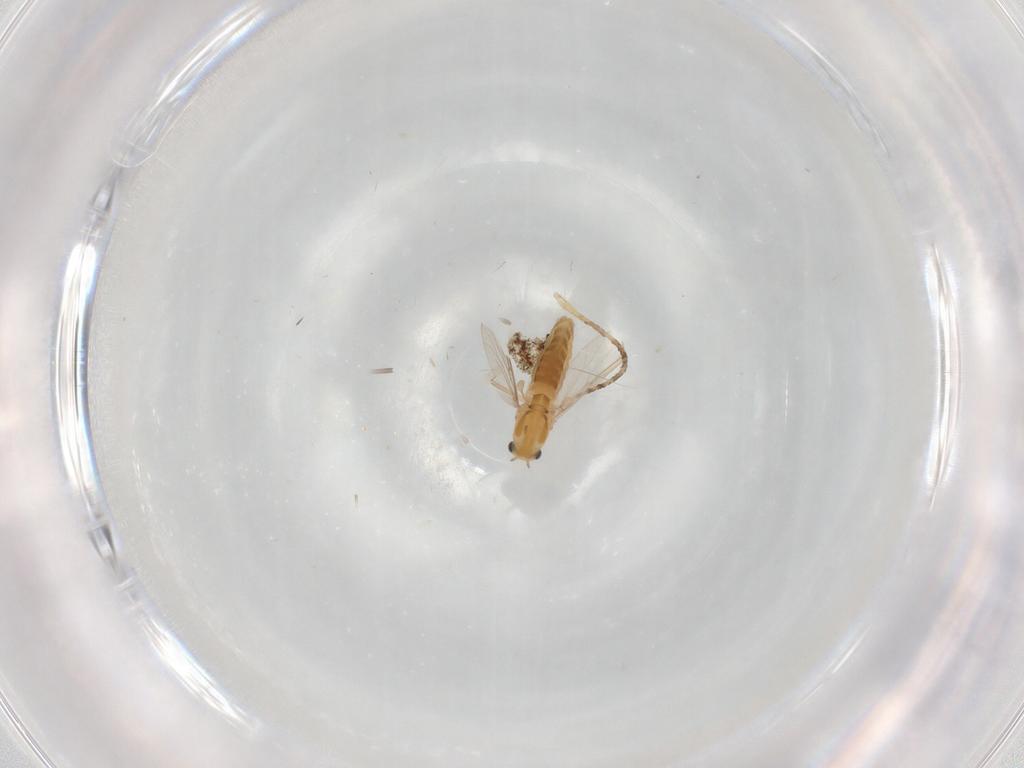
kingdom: Animalia
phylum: Arthropoda
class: Insecta
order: Diptera
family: Chironomidae
